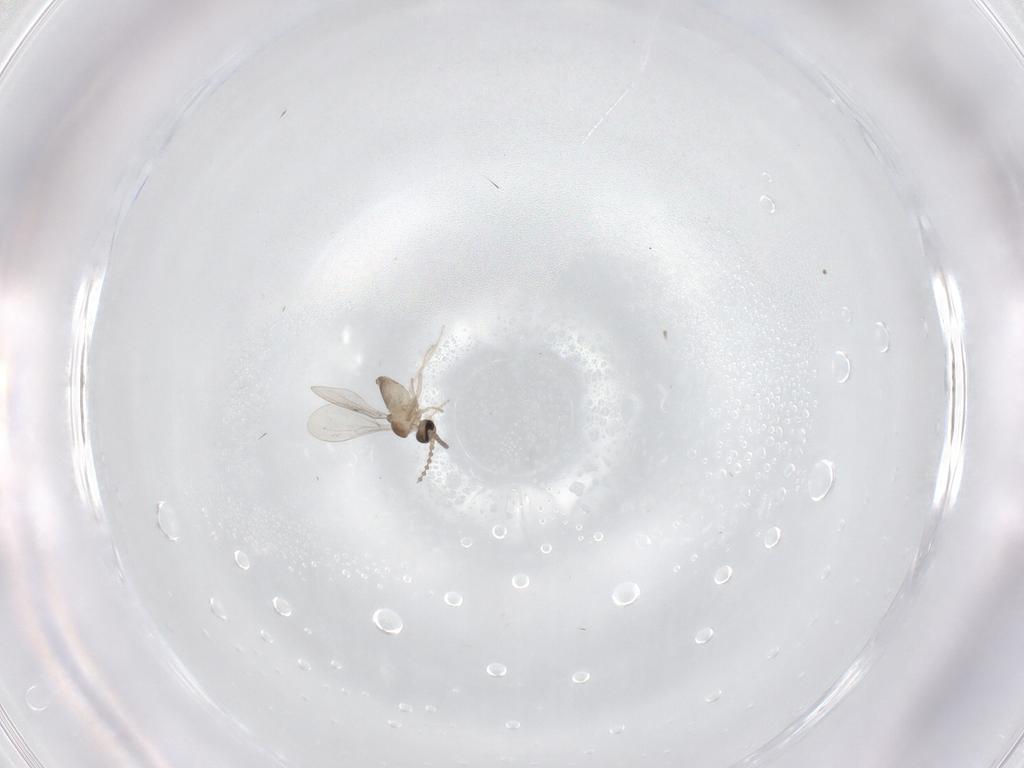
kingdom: Animalia
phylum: Arthropoda
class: Insecta
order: Diptera
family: Cecidomyiidae
